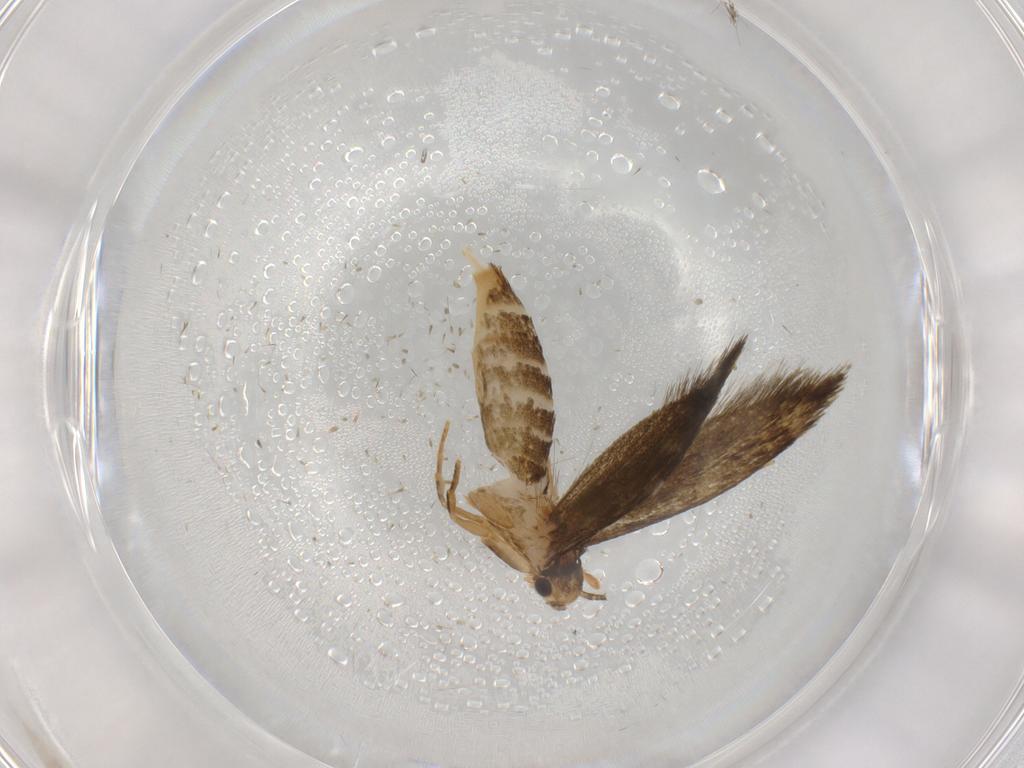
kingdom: Animalia
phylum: Arthropoda
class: Insecta
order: Lepidoptera
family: Tineidae
